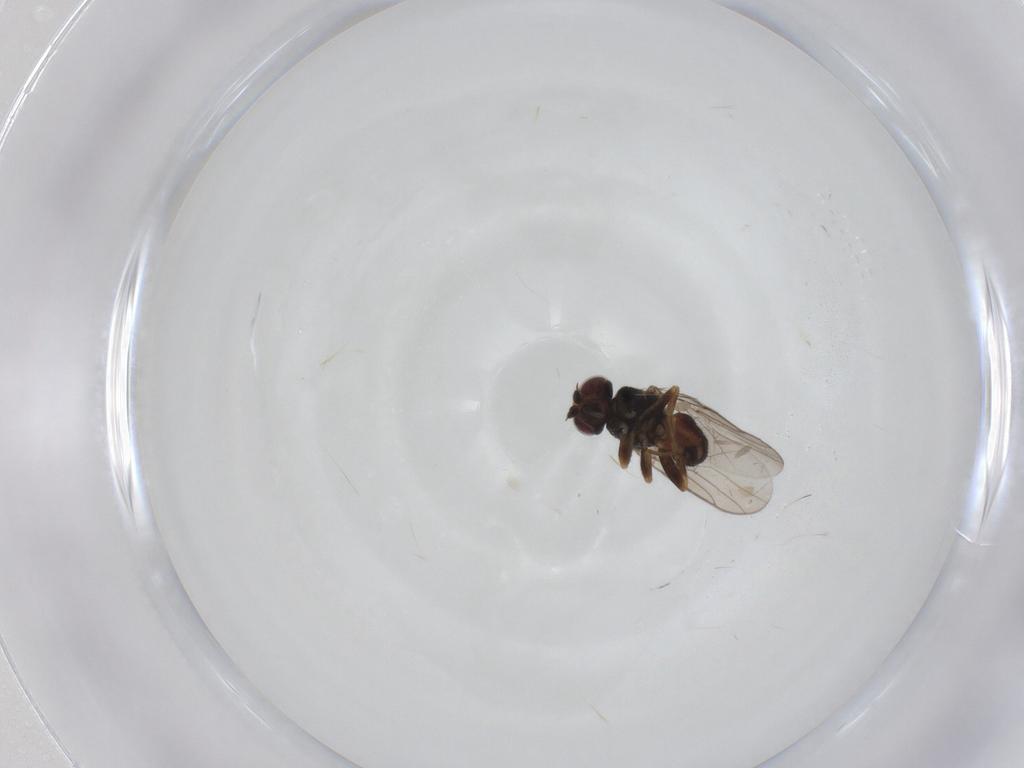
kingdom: Animalia
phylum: Arthropoda
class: Insecta
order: Diptera
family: Chloropidae
